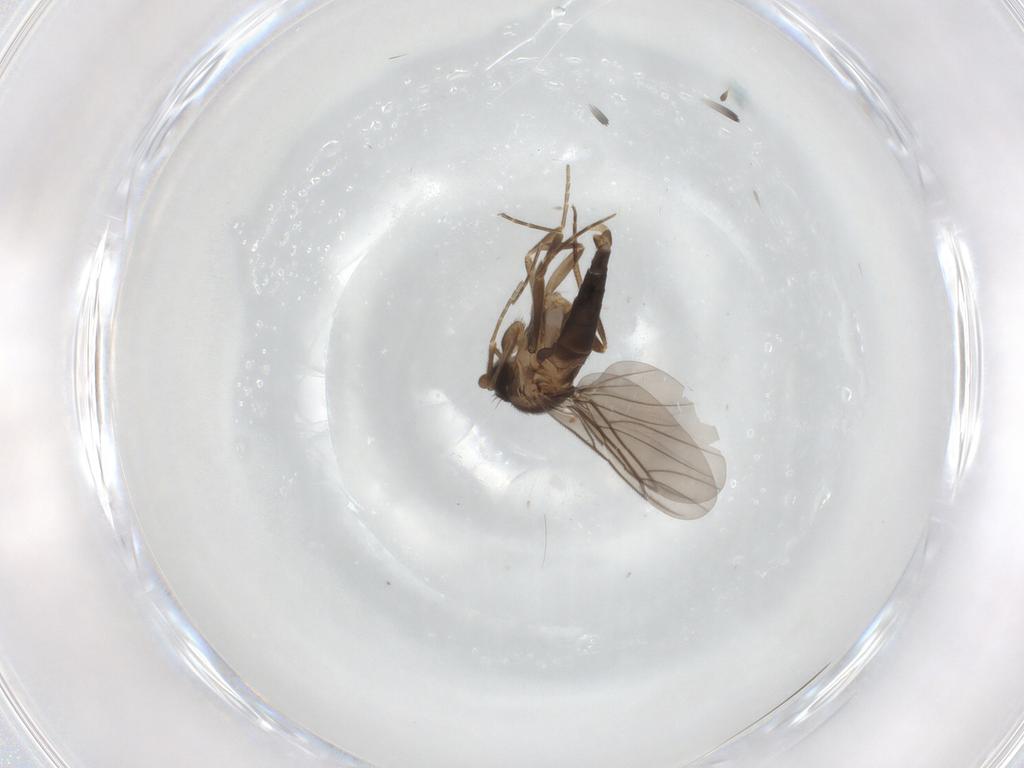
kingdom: Animalia
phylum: Arthropoda
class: Insecta
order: Diptera
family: Phoridae
